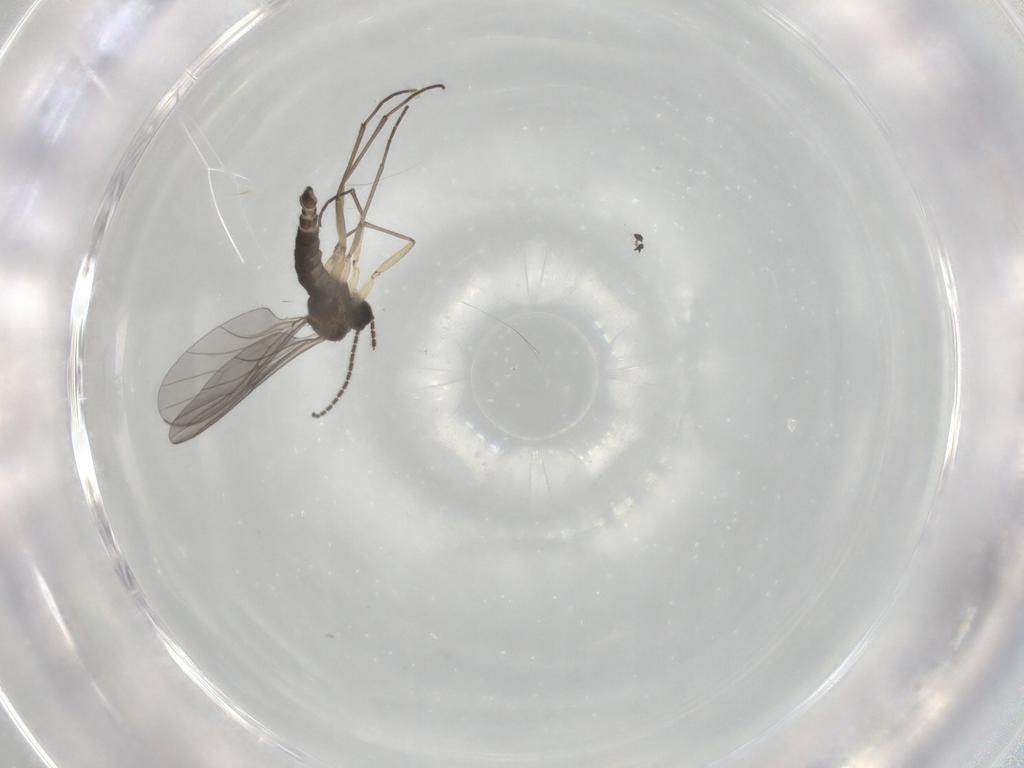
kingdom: Animalia
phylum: Arthropoda
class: Insecta
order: Diptera
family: Sciaridae
